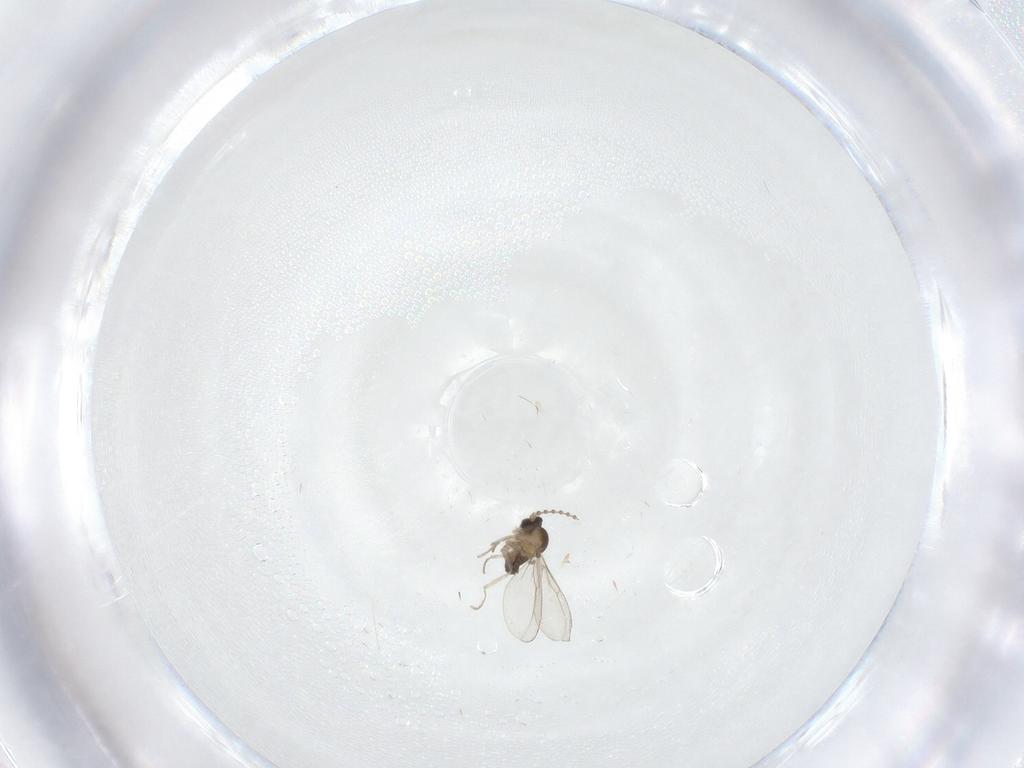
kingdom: Animalia
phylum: Arthropoda
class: Insecta
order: Diptera
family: Cecidomyiidae
